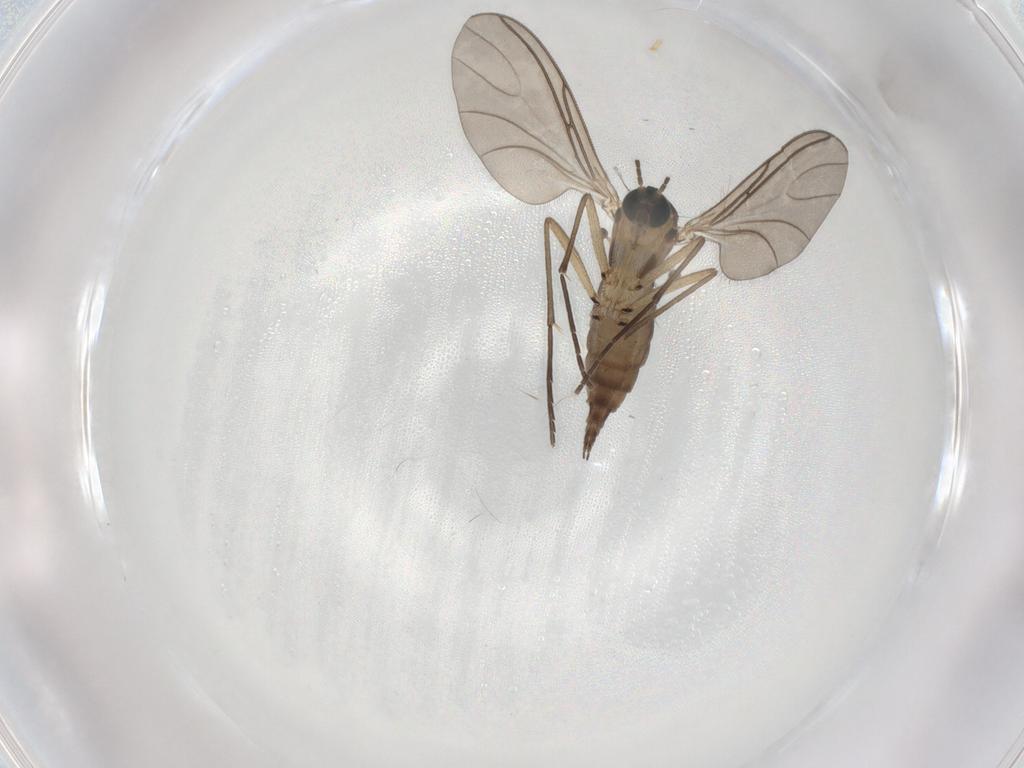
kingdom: Animalia
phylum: Arthropoda
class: Insecta
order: Diptera
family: Sciaridae
